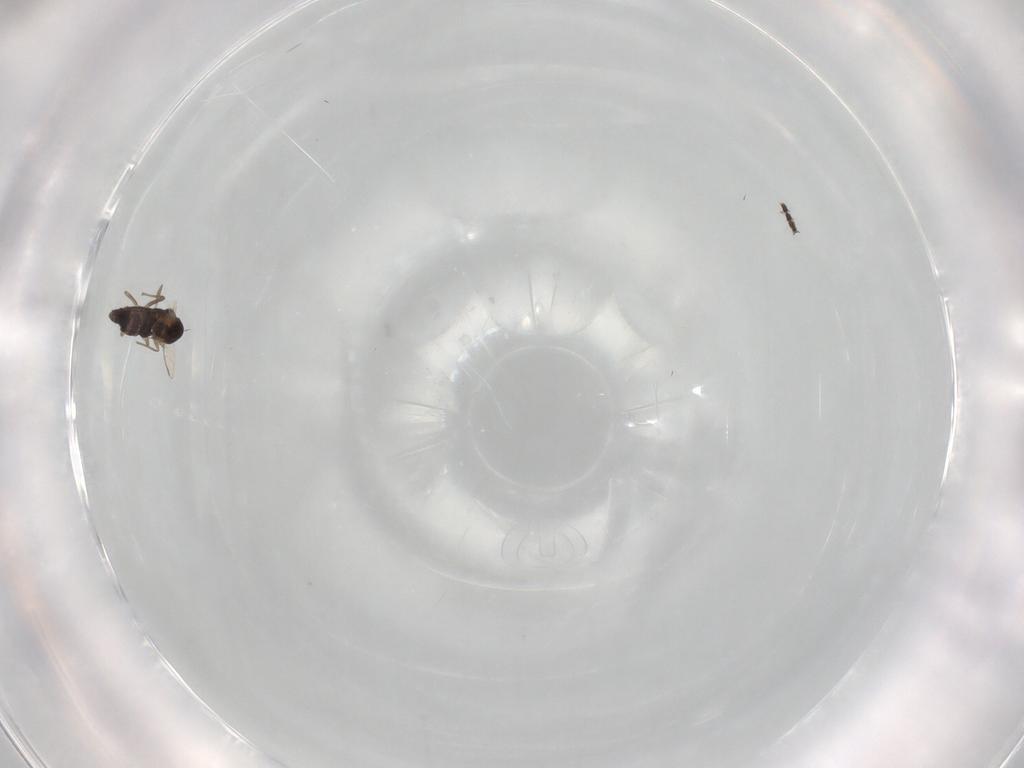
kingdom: Animalia
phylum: Arthropoda
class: Insecta
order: Diptera
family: Chironomidae
